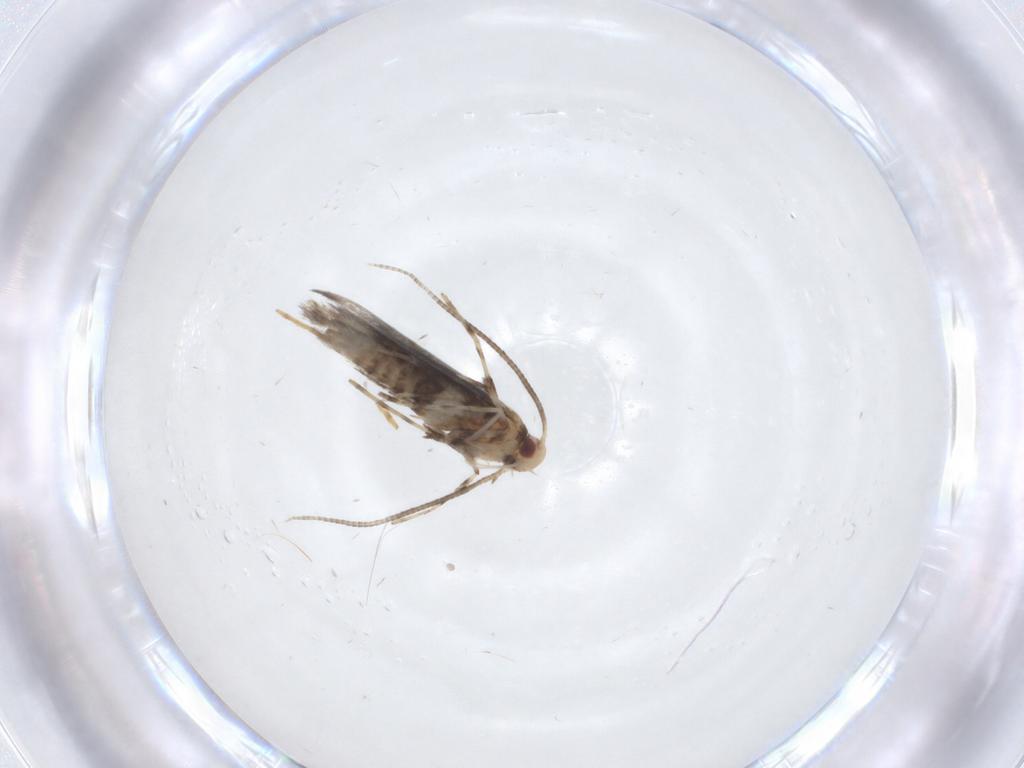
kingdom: Animalia
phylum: Arthropoda
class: Insecta
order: Lepidoptera
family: Gracillariidae
